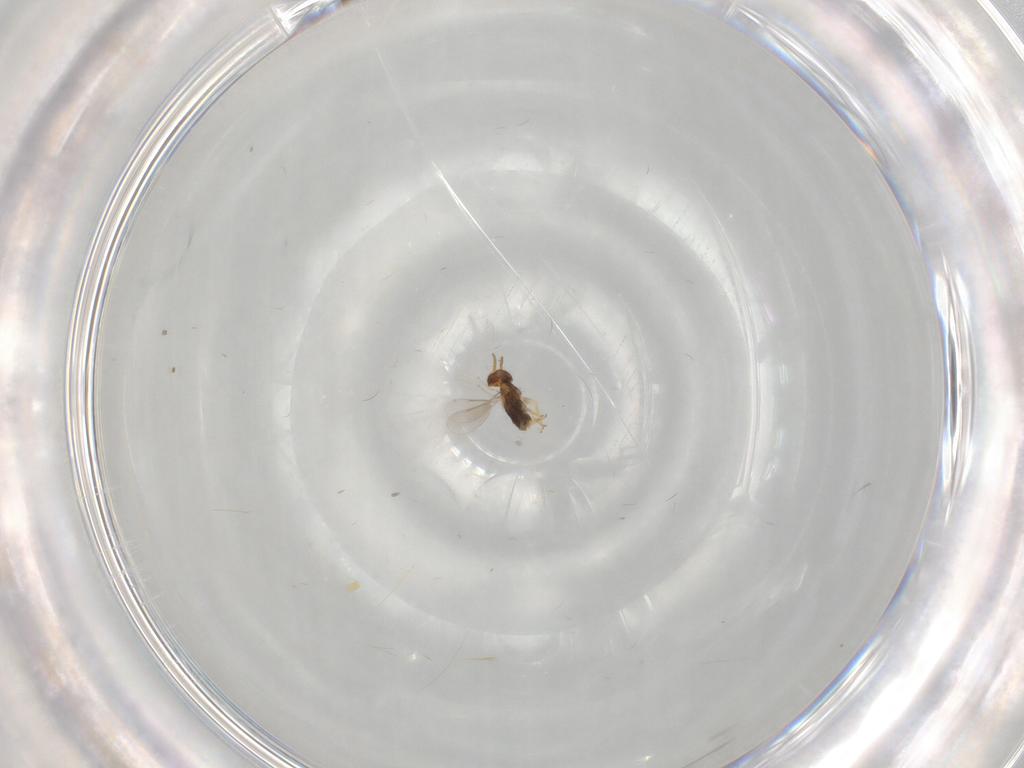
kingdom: Animalia
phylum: Arthropoda
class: Insecta
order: Hymenoptera
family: Aphelinidae
